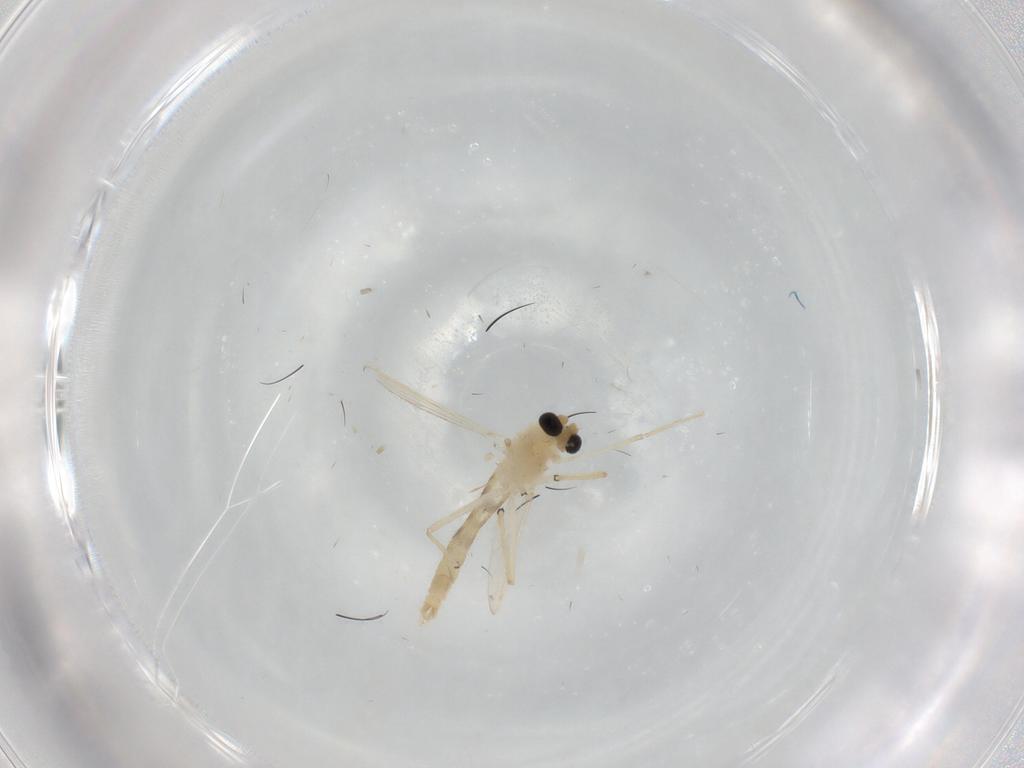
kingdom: Animalia
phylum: Arthropoda
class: Insecta
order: Diptera
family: Chironomidae
